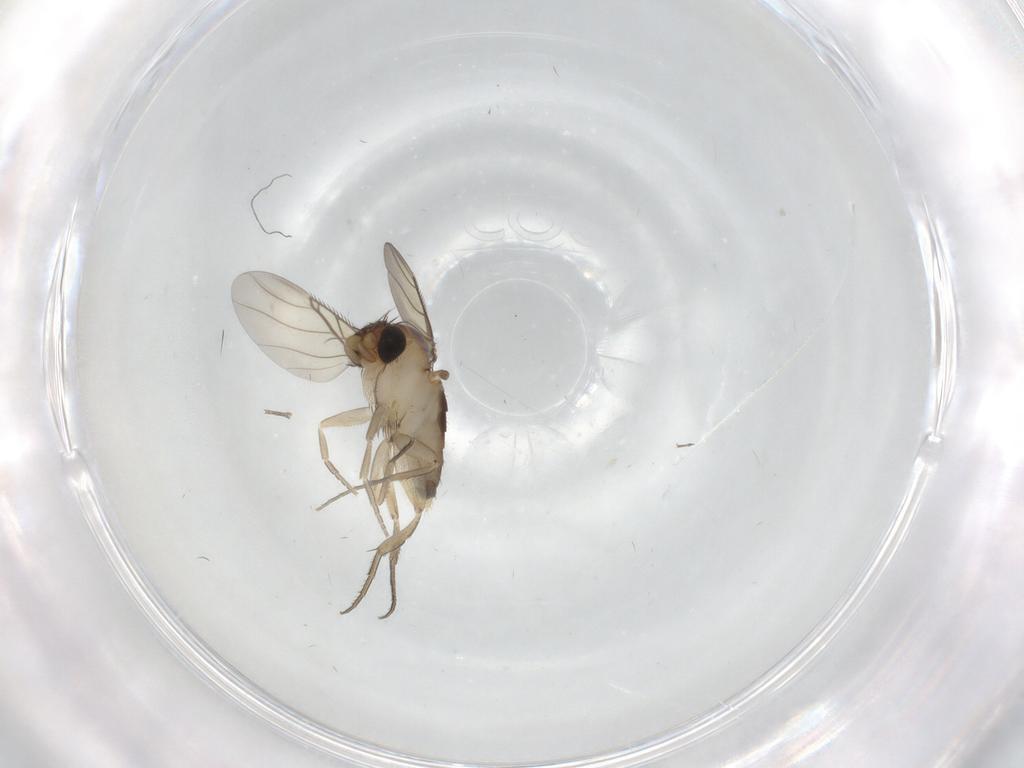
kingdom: Animalia
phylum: Arthropoda
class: Insecta
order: Diptera
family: Phoridae
